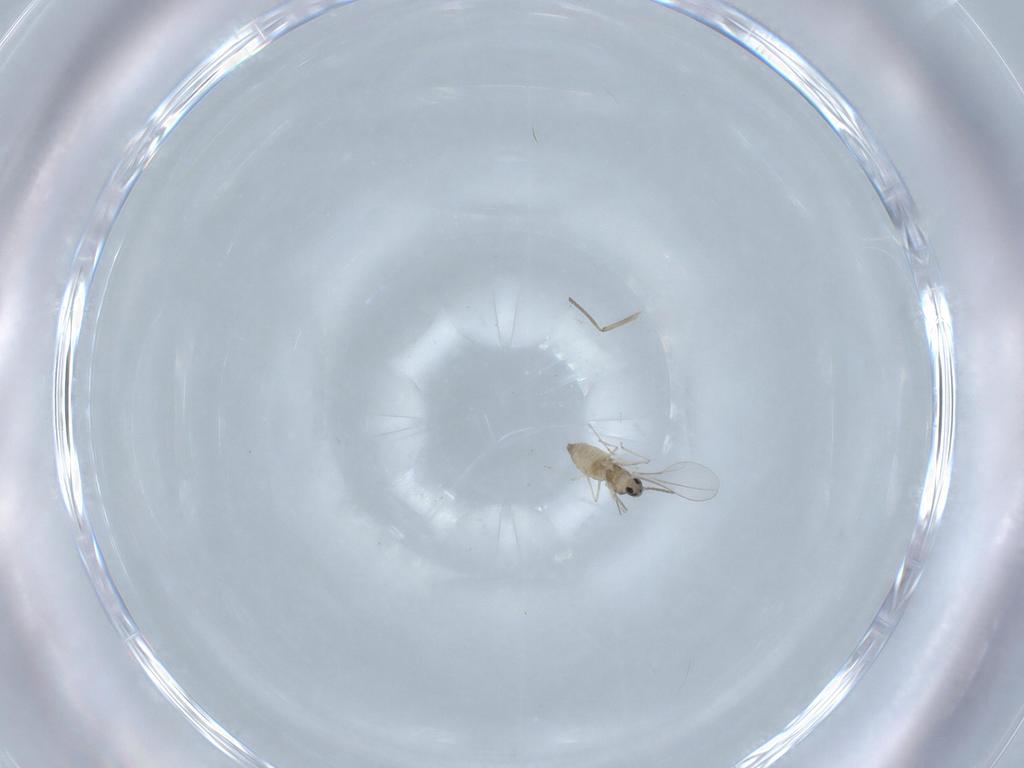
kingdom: Animalia
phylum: Arthropoda
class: Insecta
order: Diptera
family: Cecidomyiidae
